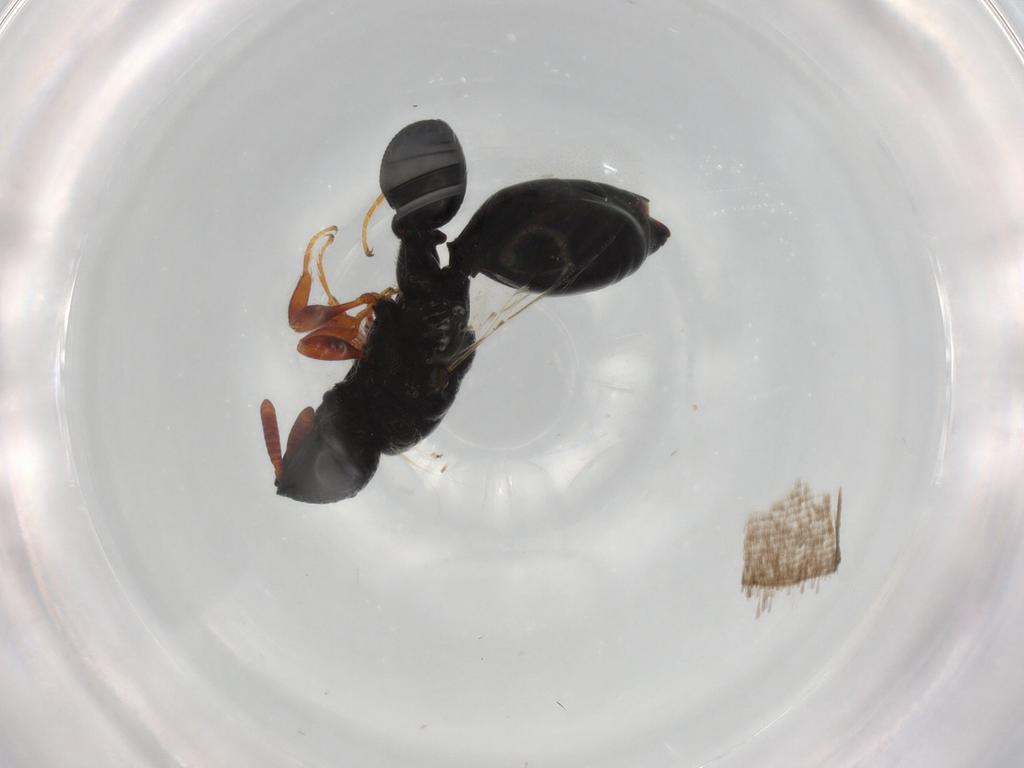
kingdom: Animalia
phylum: Arthropoda
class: Insecta
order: Hymenoptera
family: Chalcididae
